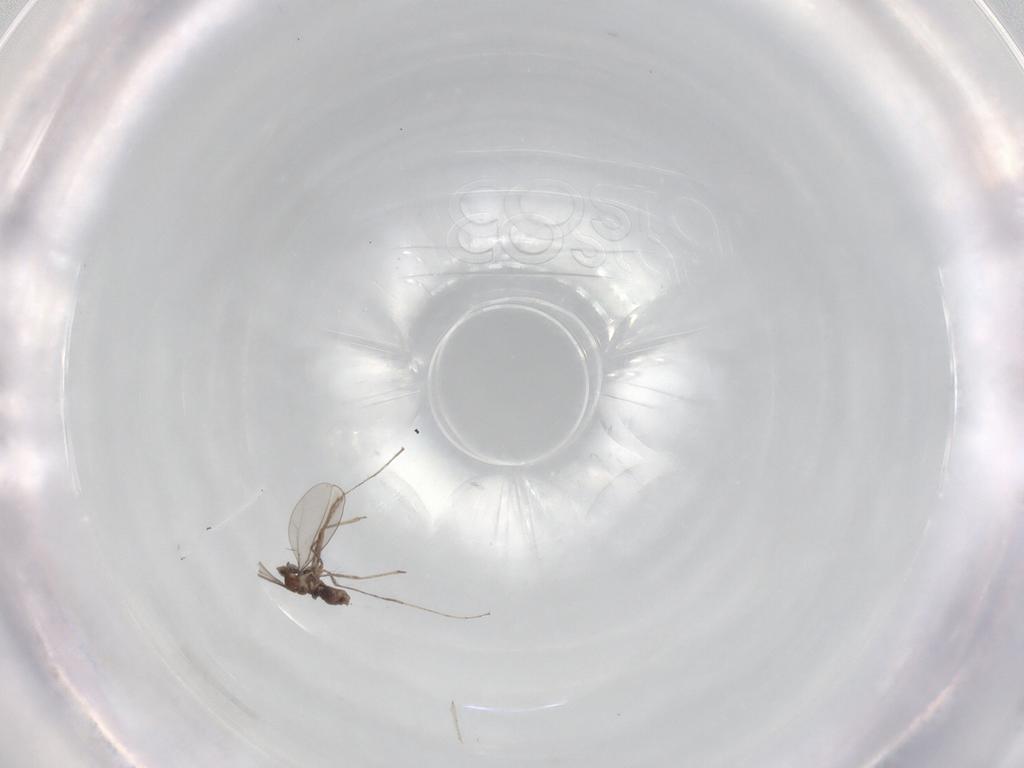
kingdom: Animalia
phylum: Arthropoda
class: Insecta
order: Diptera
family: Cecidomyiidae
